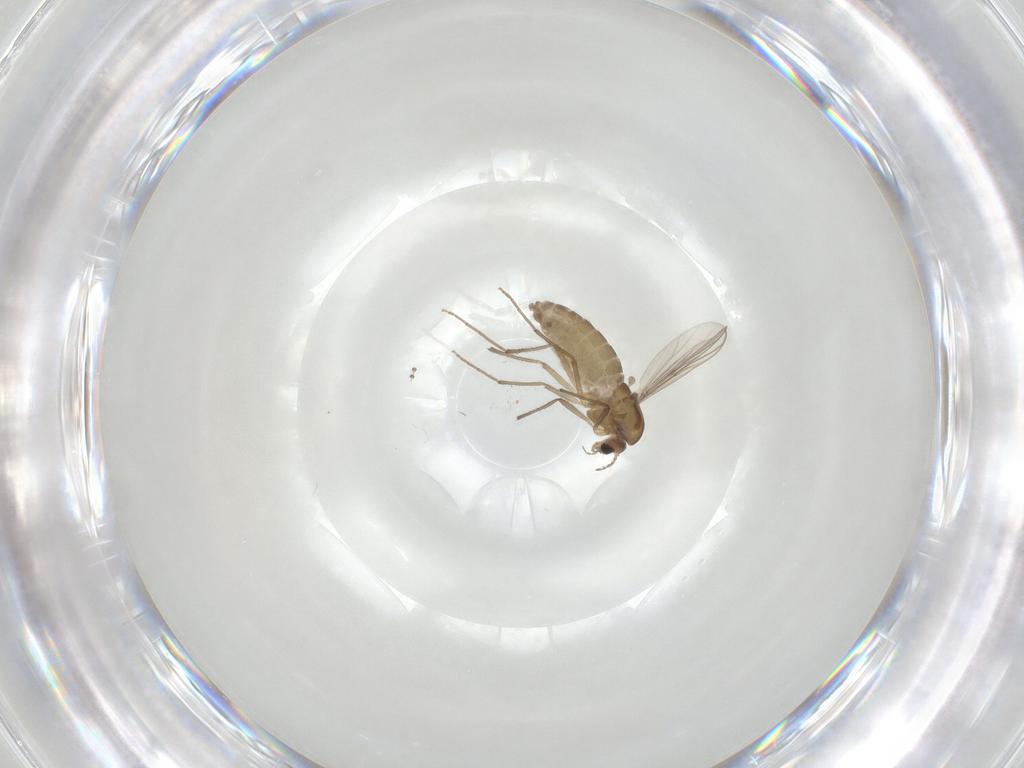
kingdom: Animalia
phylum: Arthropoda
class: Insecta
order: Diptera
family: Chironomidae
